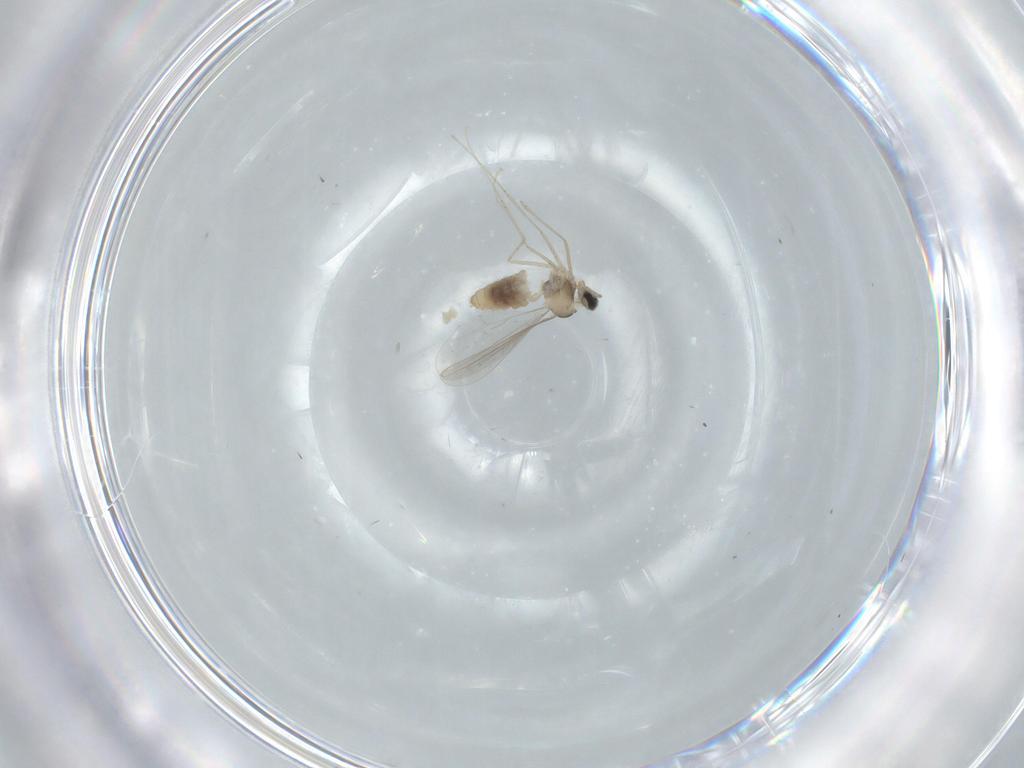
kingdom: Animalia
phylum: Arthropoda
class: Insecta
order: Diptera
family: Cecidomyiidae
